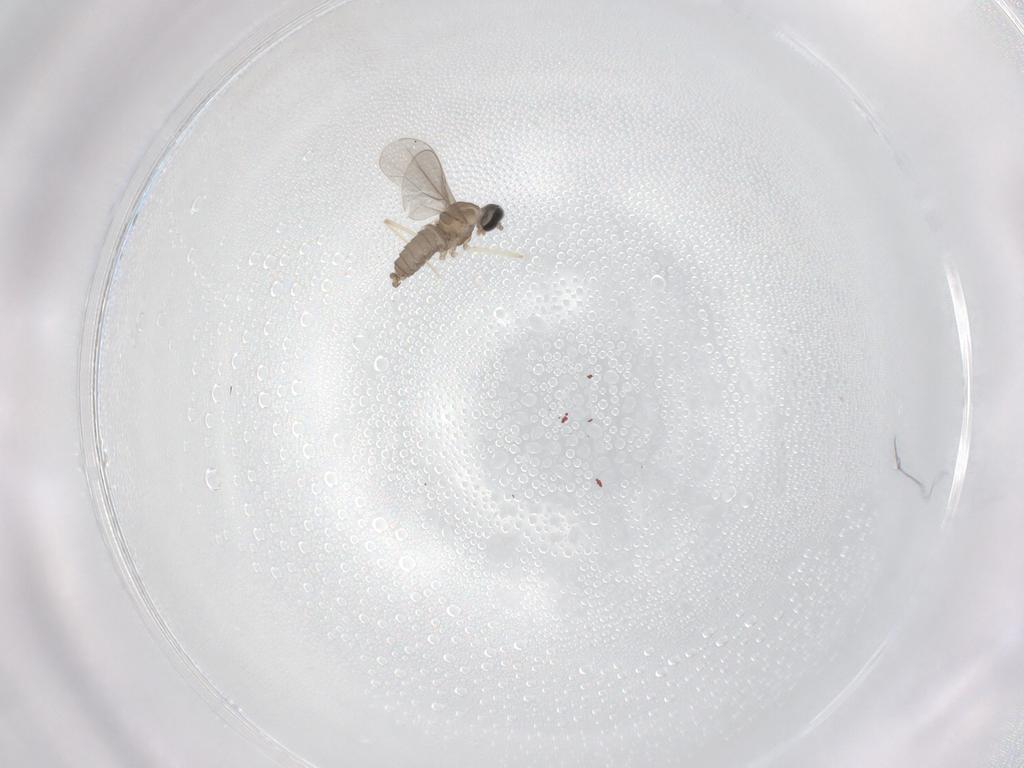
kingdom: Animalia
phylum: Arthropoda
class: Insecta
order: Diptera
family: Cecidomyiidae
